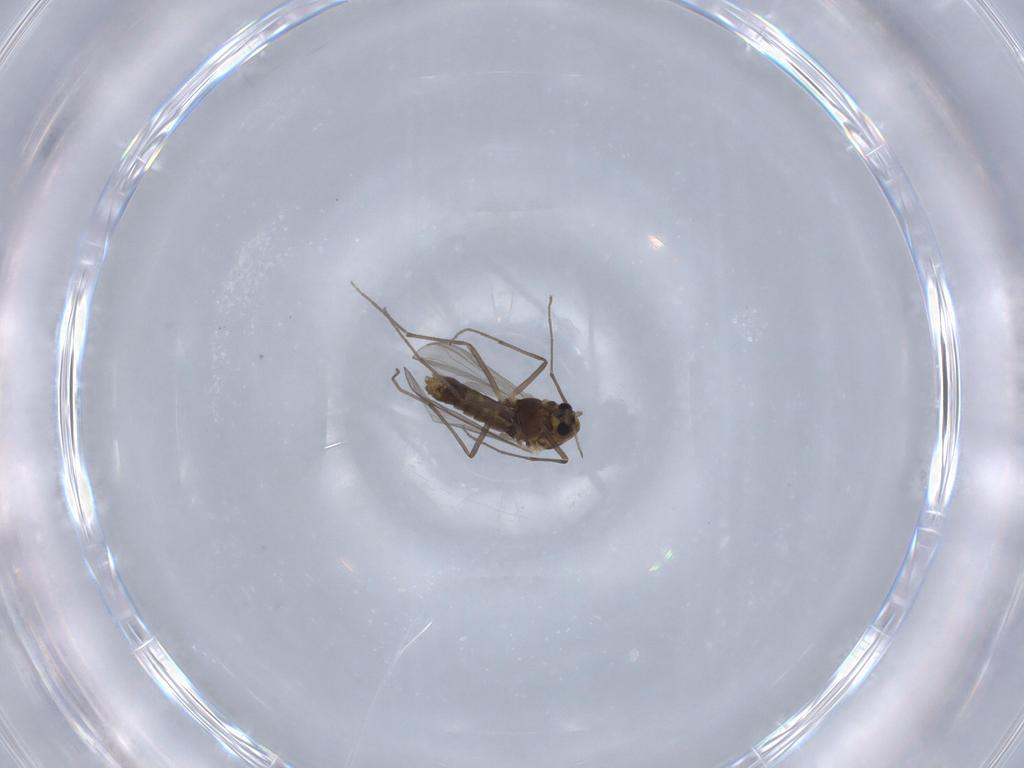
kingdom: Animalia
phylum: Arthropoda
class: Insecta
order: Diptera
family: Chironomidae
